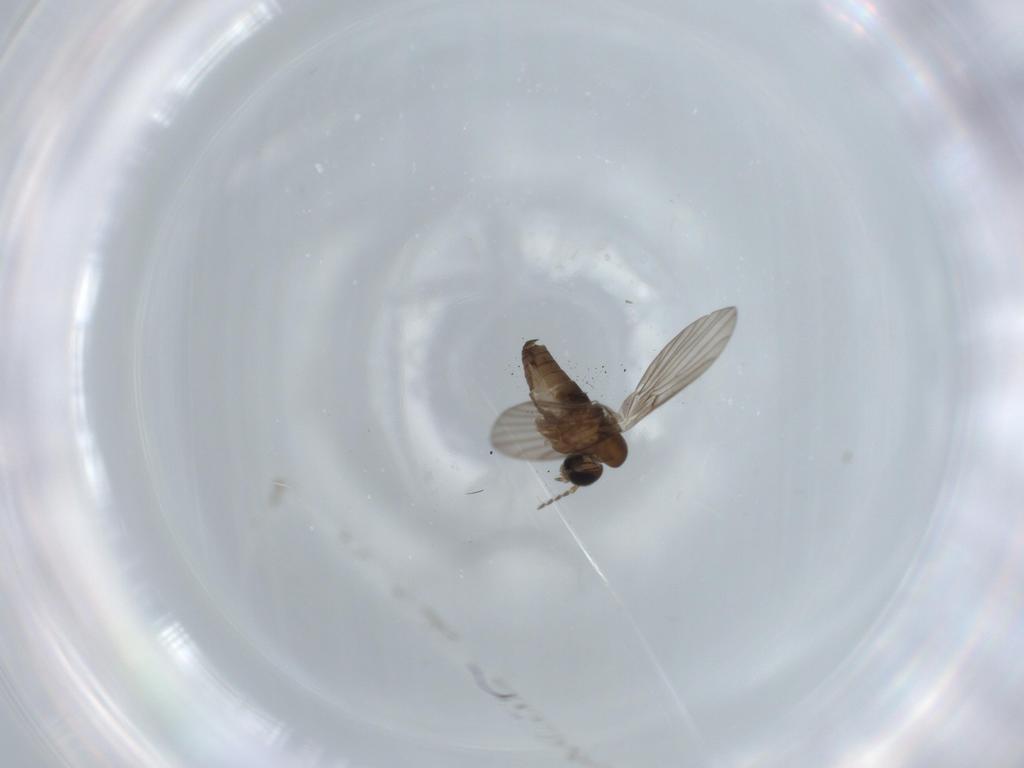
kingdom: Animalia
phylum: Arthropoda
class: Insecta
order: Diptera
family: Psychodidae
